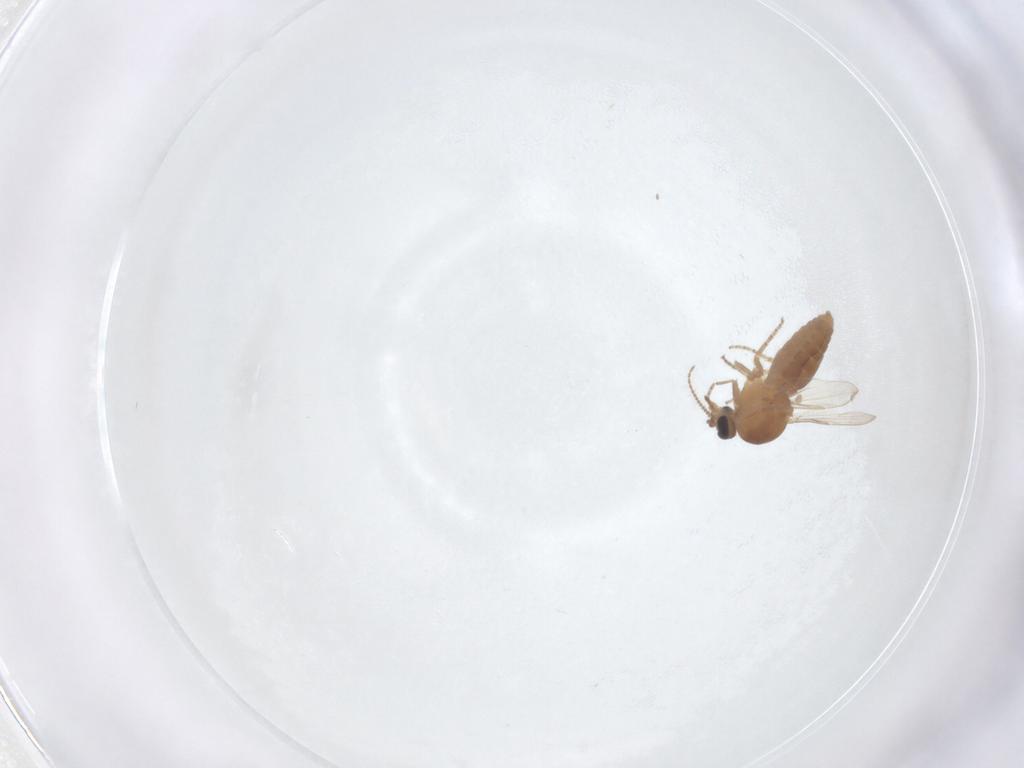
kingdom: Animalia
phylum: Arthropoda
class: Insecta
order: Diptera
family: Ceratopogonidae
